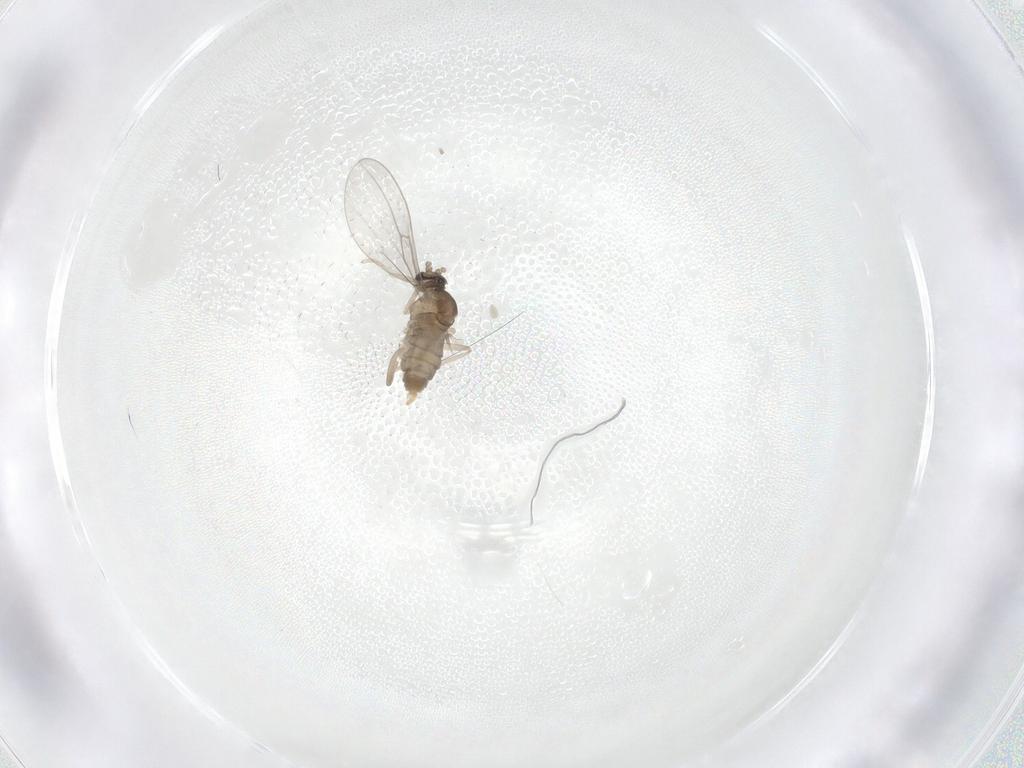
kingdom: Animalia
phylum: Arthropoda
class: Insecta
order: Diptera
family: Cecidomyiidae
